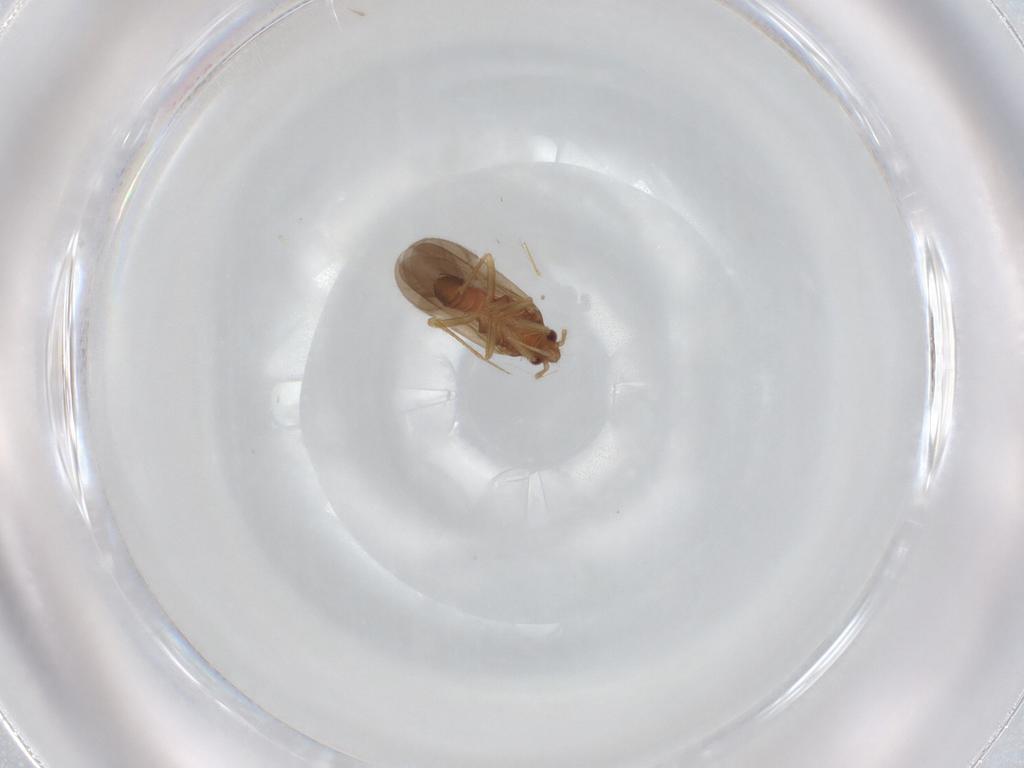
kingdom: Animalia
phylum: Arthropoda
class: Insecta
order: Hemiptera
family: Ceratocombidae
